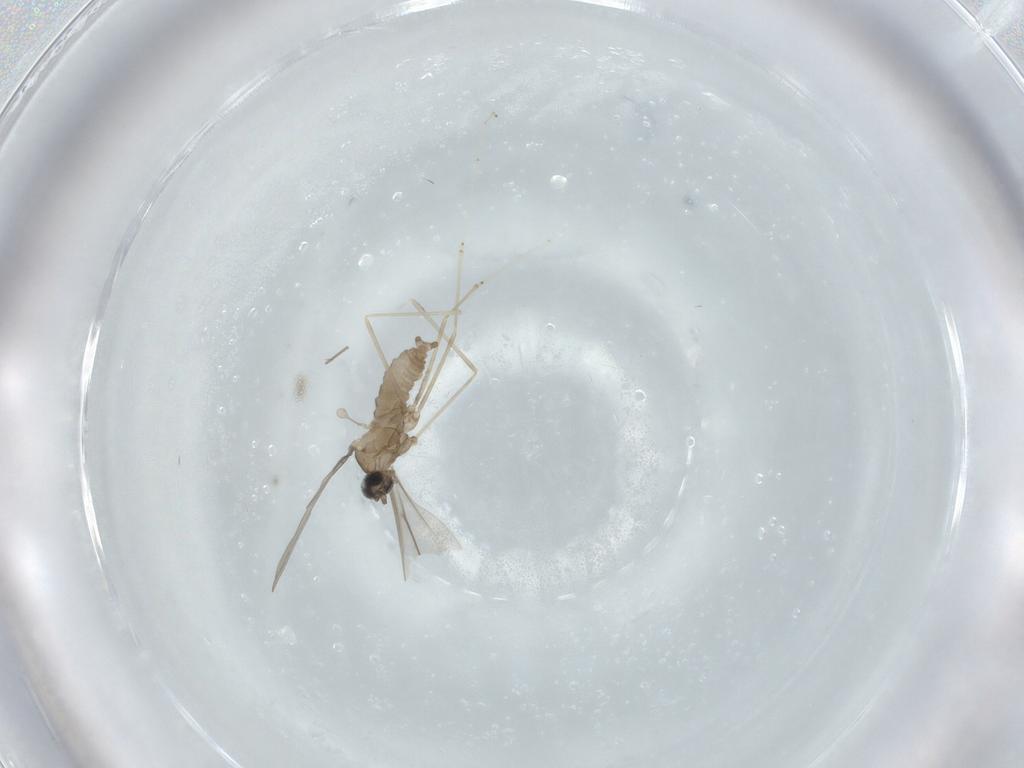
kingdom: Animalia
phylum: Arthropoda
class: Insecta
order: Diptera
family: Cecidomyiidae
